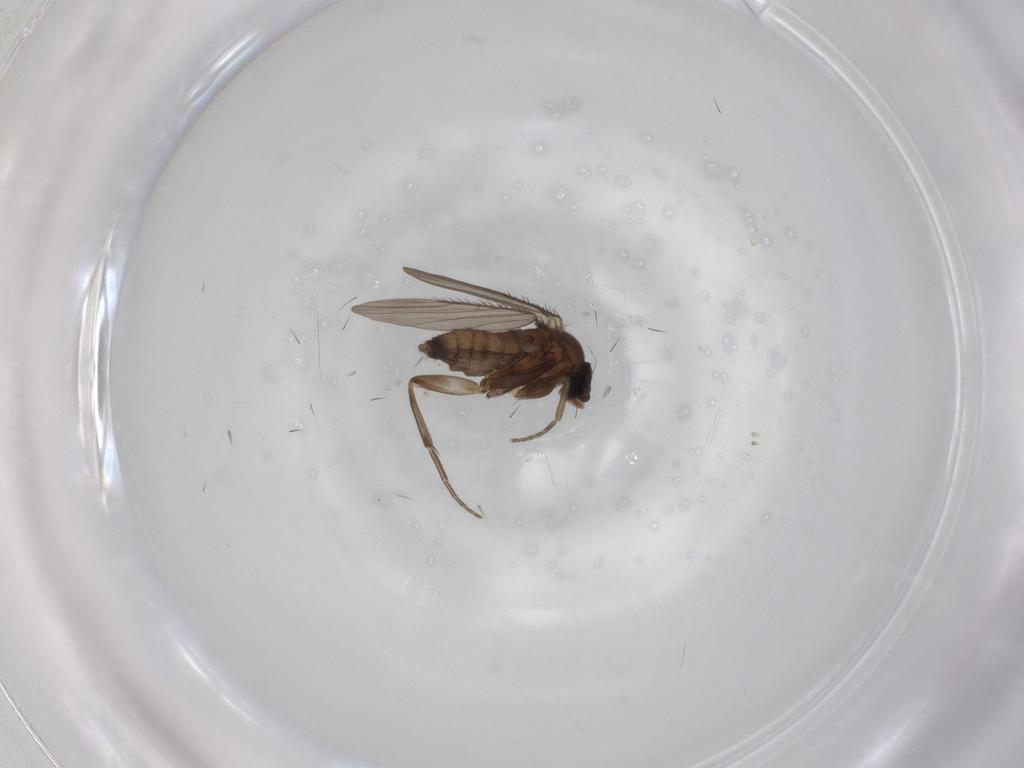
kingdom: Animalia
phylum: Arthropoda
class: Insecta
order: Diptera
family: Phoridae
